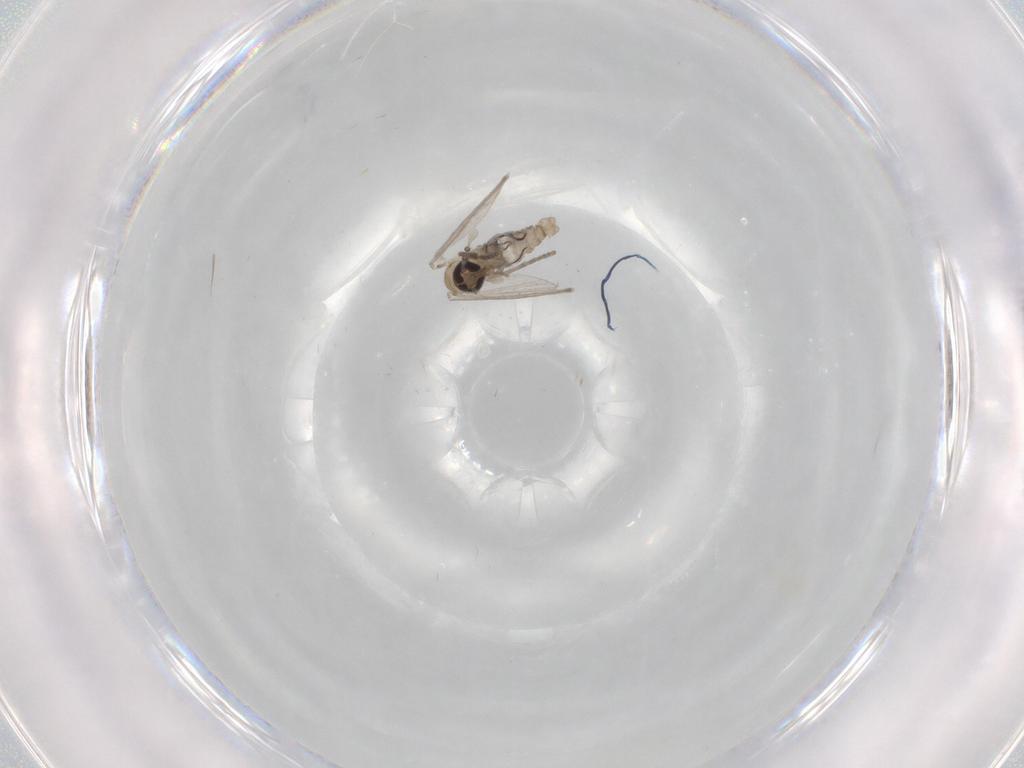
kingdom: Animalia
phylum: Arthropoda
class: Insecta
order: Diptera
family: Psychodidae
